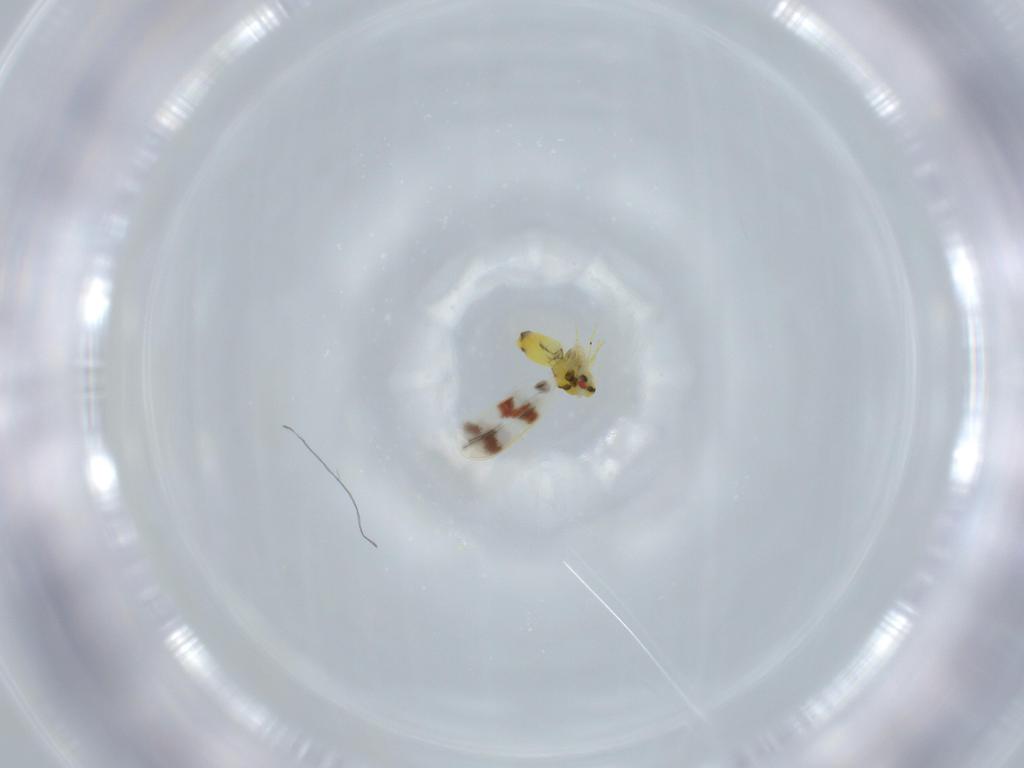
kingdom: Animalia
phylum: Arthropoda
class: Insecta
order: Hemiptera
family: Aleyrodidae
